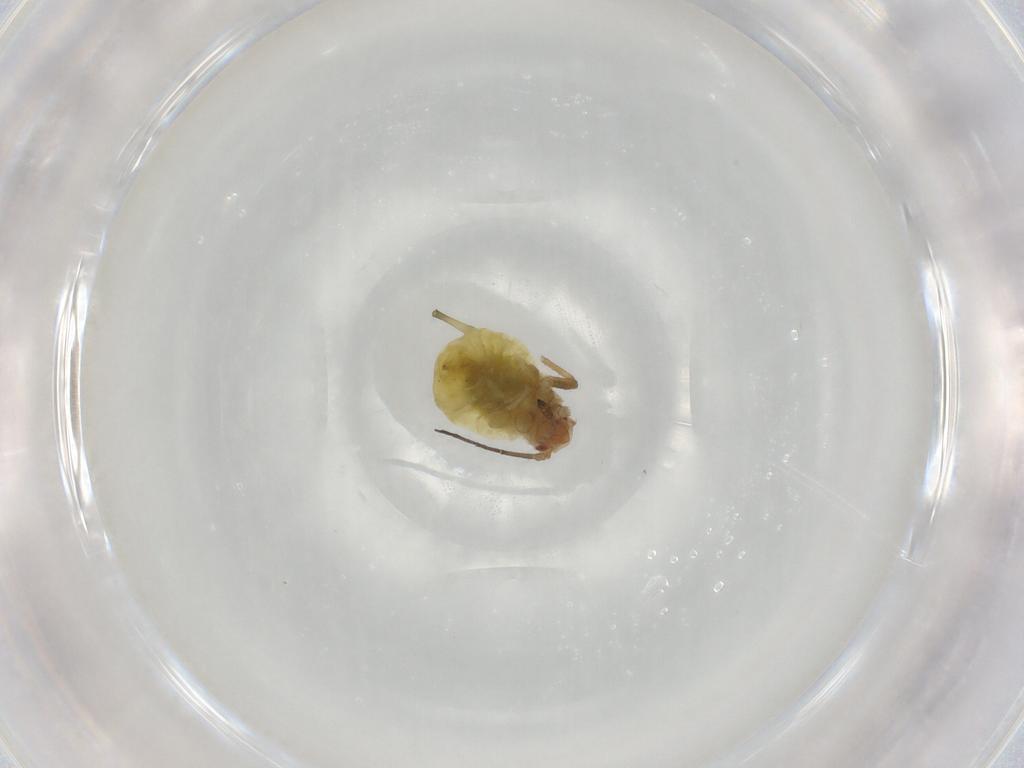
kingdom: Animalia
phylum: Arthropoda
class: Insecta
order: Hemiptera
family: Aphididae
